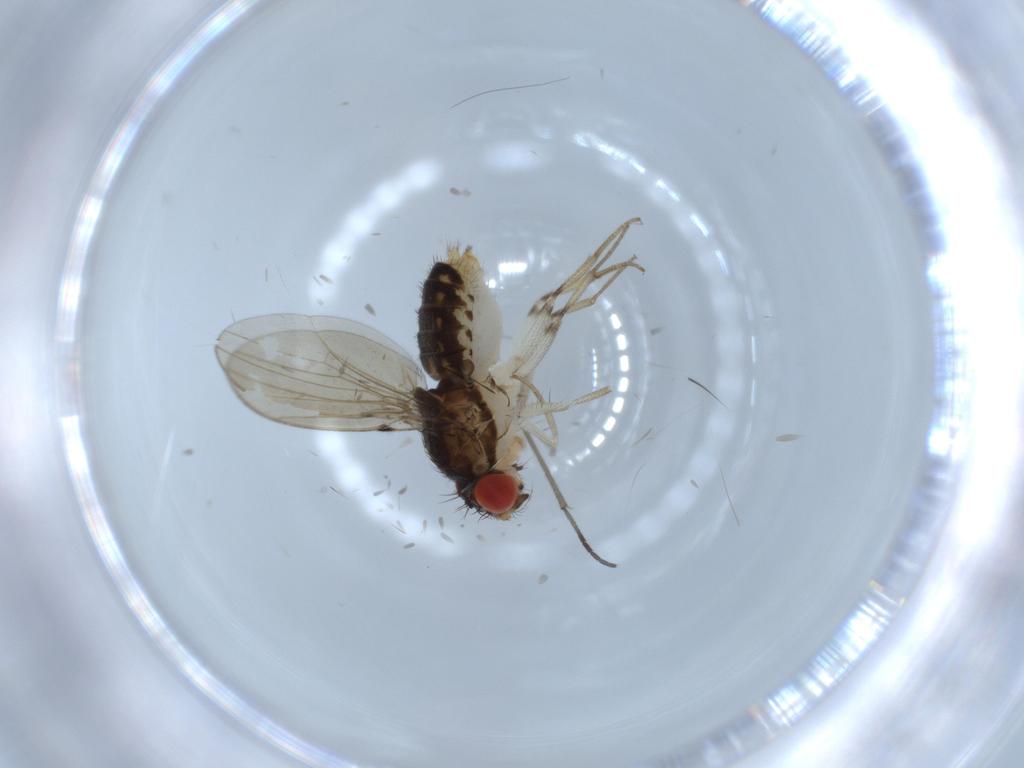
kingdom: Animalia
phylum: Arthropoda
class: Insecta
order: Diptera
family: Drosophilidae
